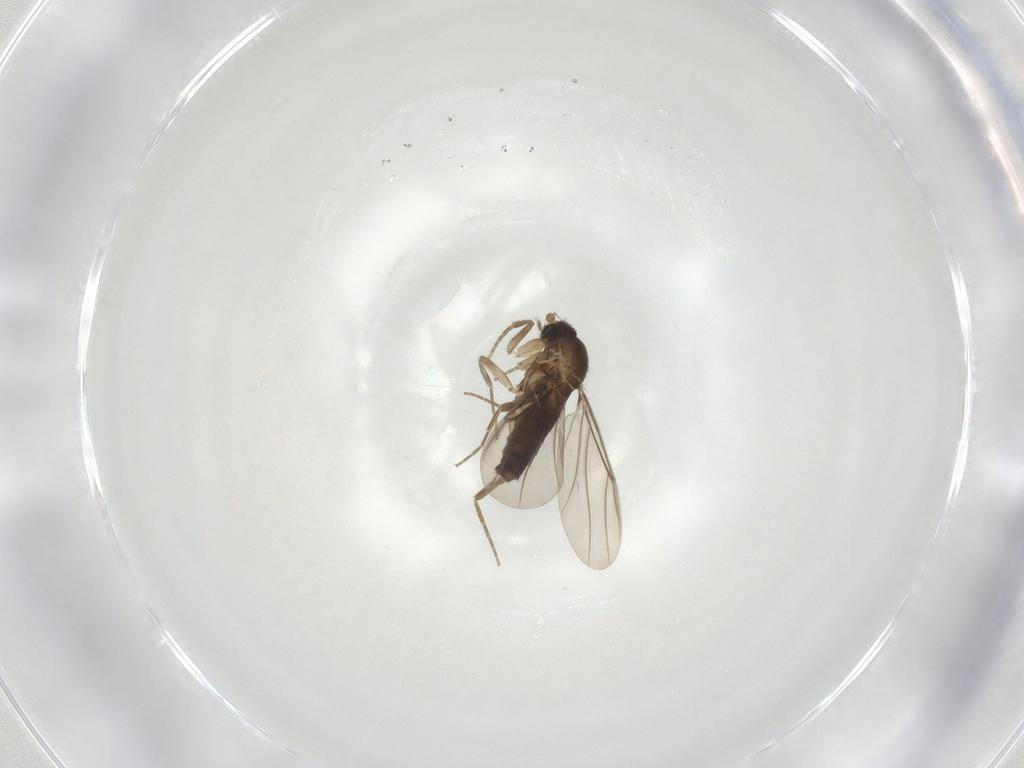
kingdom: Animalia
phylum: Arthropoda
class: Insecta
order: Diptera
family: Phoridae
